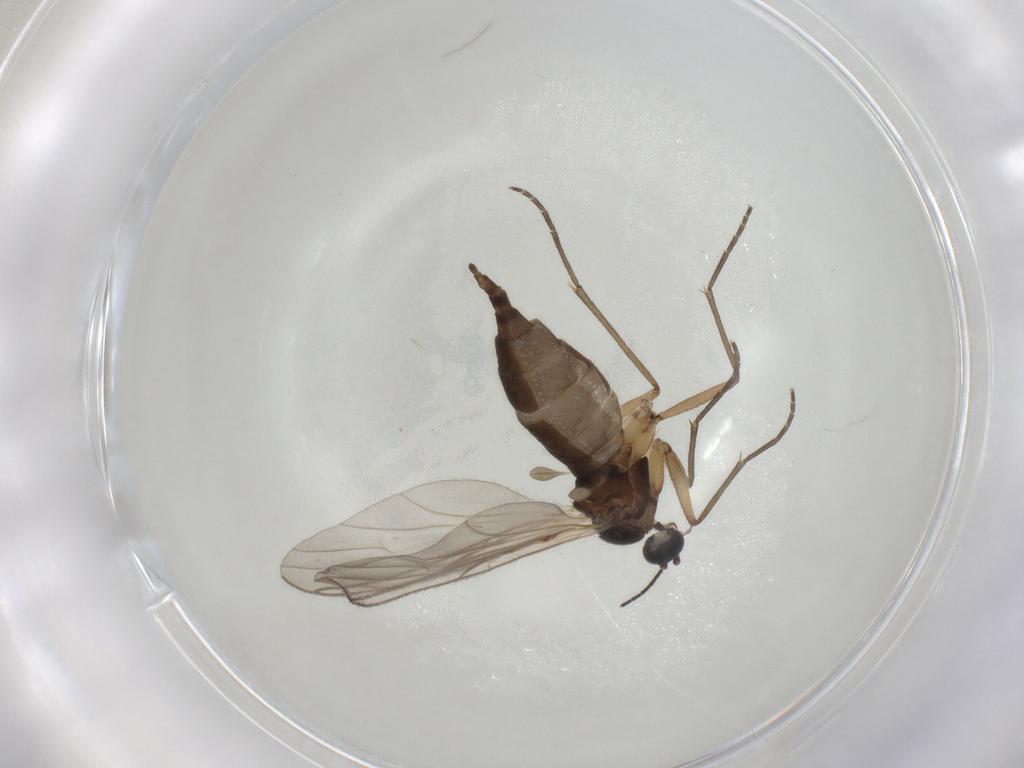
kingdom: Animalia
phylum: Arthropoda
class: Insecta
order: Diptera
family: Sciaridae
